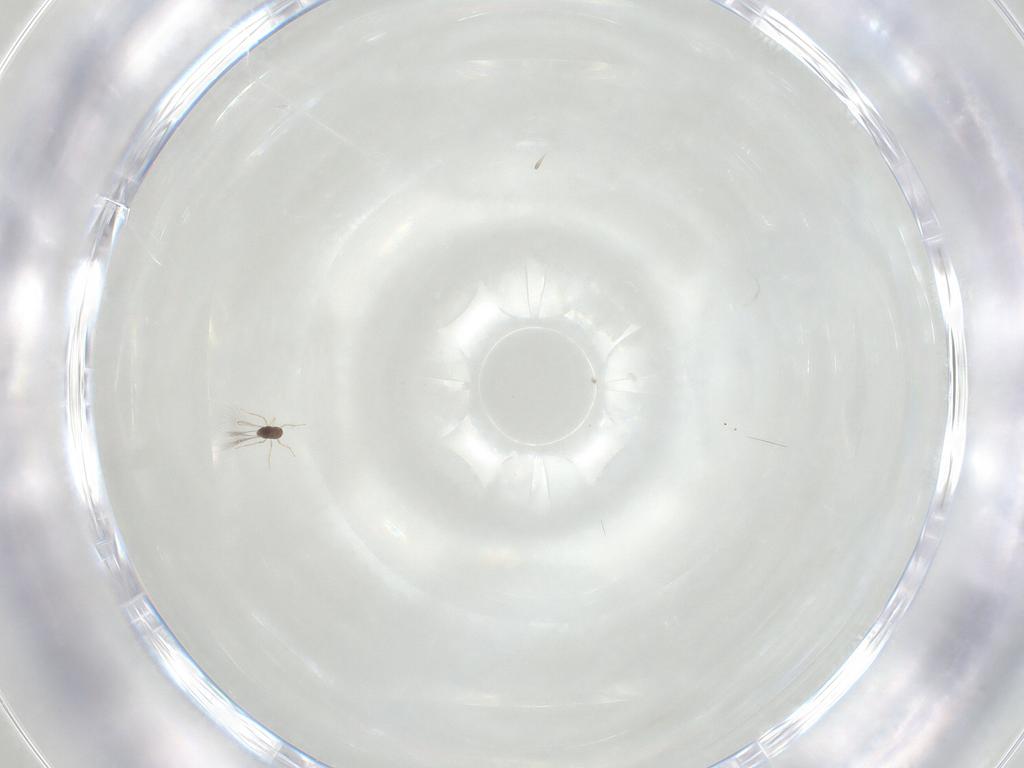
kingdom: Animalia
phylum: Arthropoda
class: Insecta
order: Hymenoptera
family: Mymaridae
